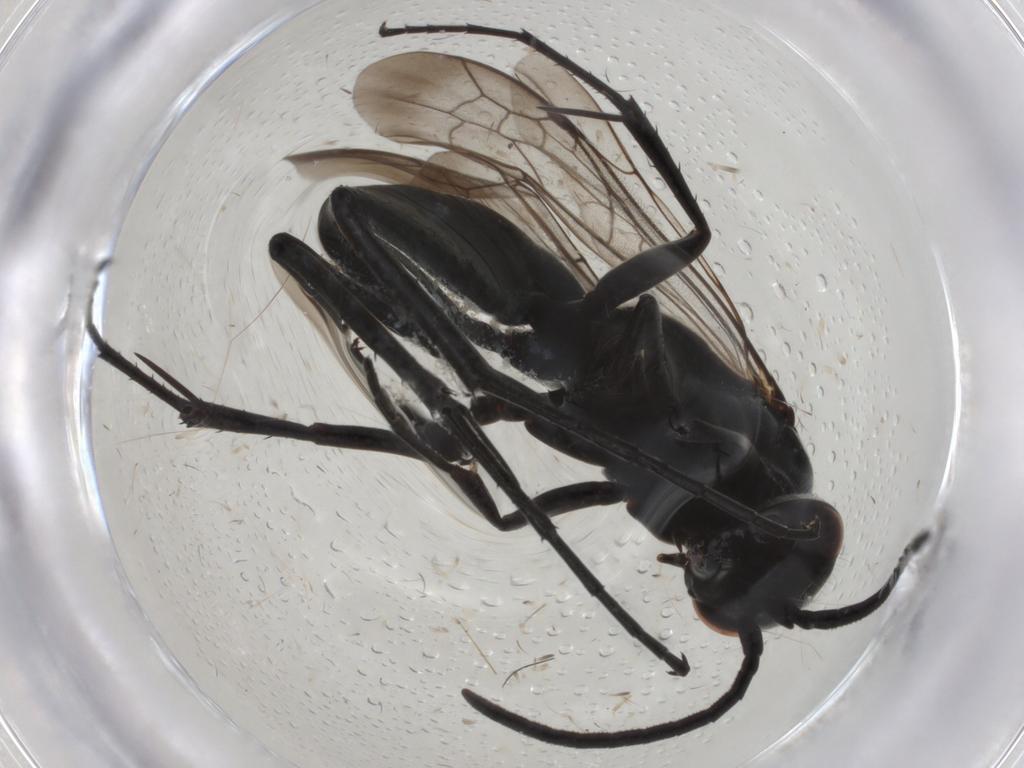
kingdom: Animalia
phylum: Arthropoda
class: Insecta
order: Hymenoptera
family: Pompilidae
